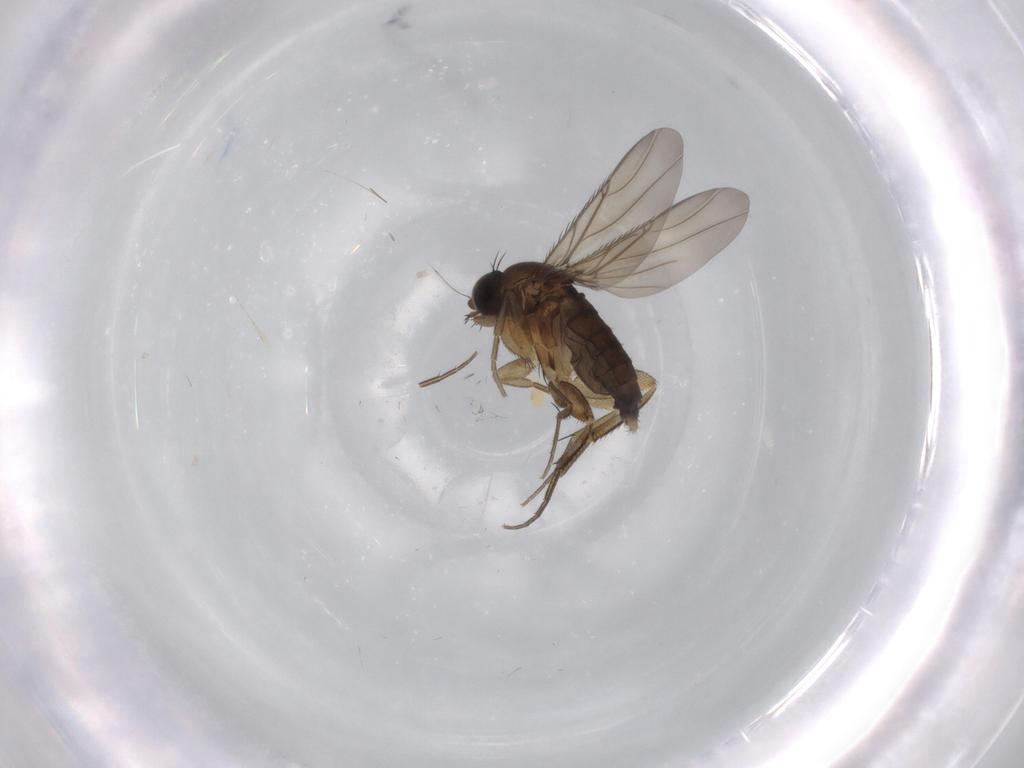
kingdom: Animalia
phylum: Arthropoda
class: Insecta
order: Diptera
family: Phoridae
